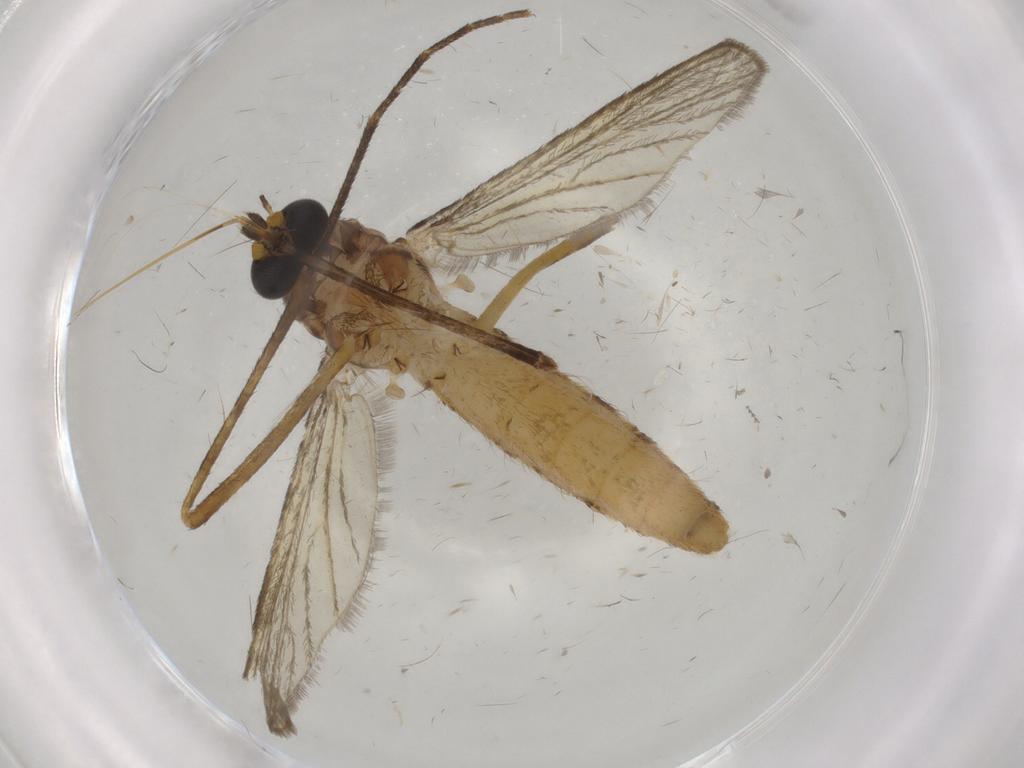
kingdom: Animalia
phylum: Arthropoda
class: Insecta
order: Diptera
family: Culicidae
